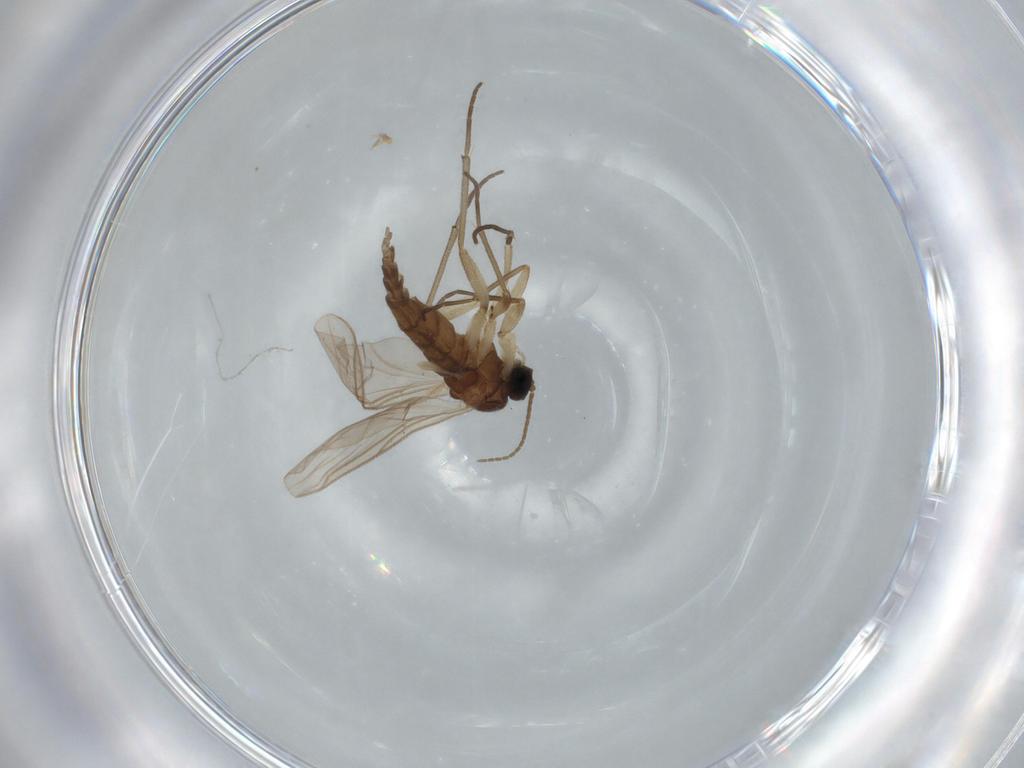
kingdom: Animalia
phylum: Arthropoda
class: Insecta
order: Diptera
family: Sciaridae
